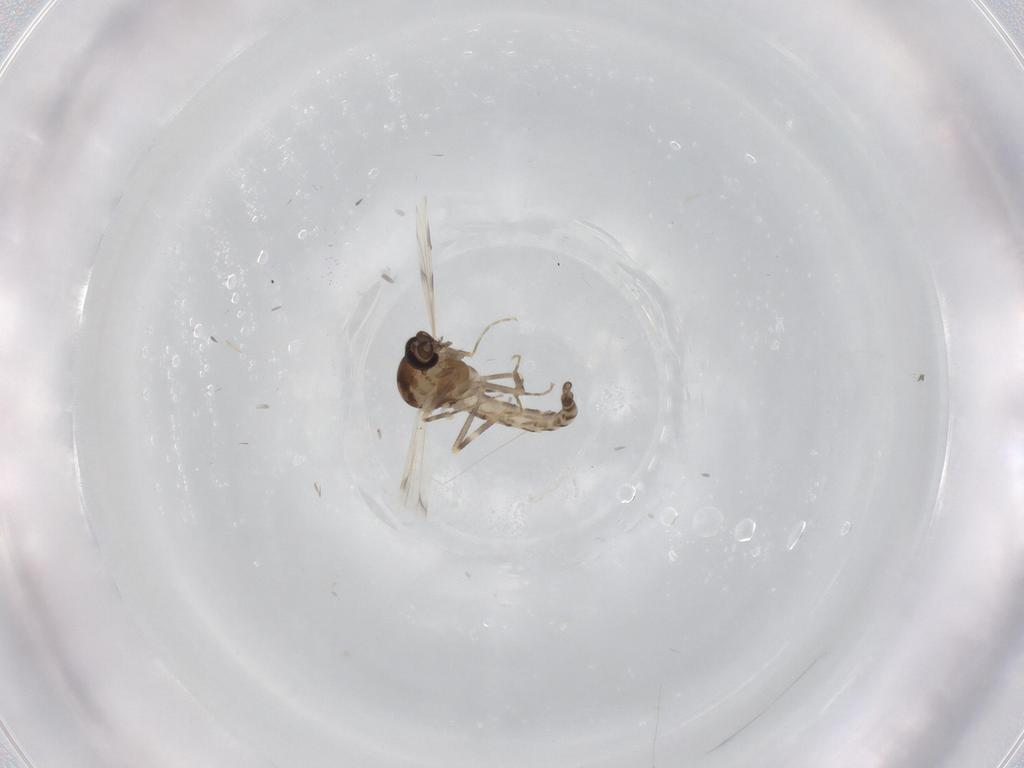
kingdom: Animalia
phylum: Arthropoda
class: Insecta
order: Diptera
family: Ceratopogonidae
